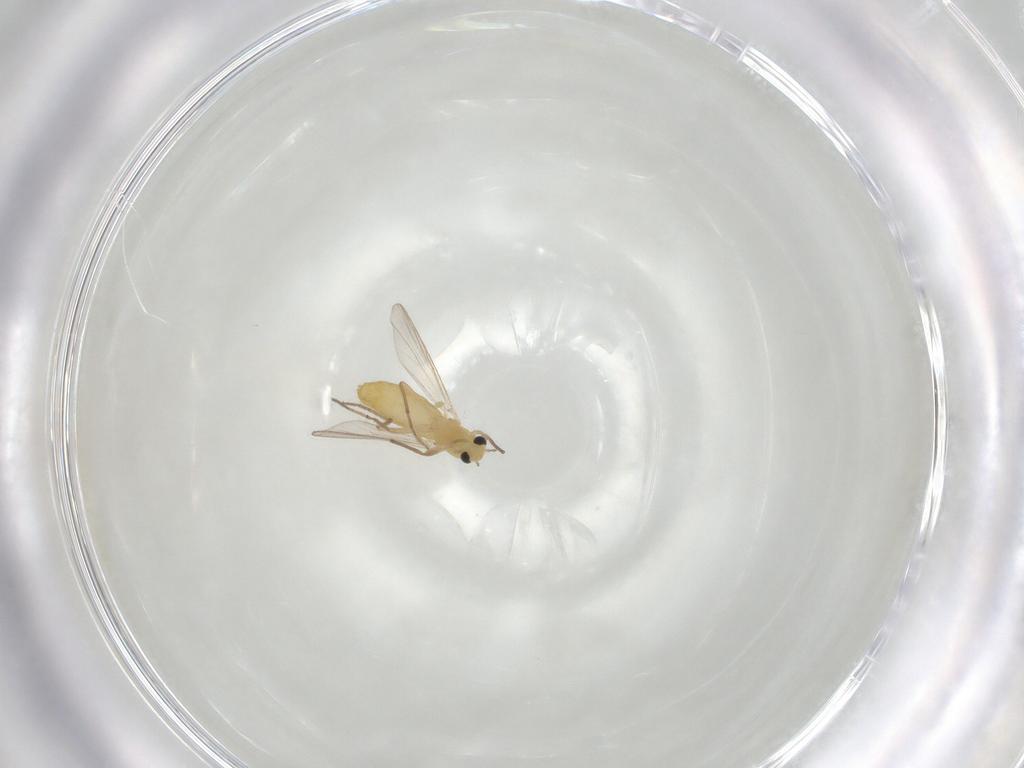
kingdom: Animalia
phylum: Arthropoda
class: Insecta
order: Diptera
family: Chironomidae
